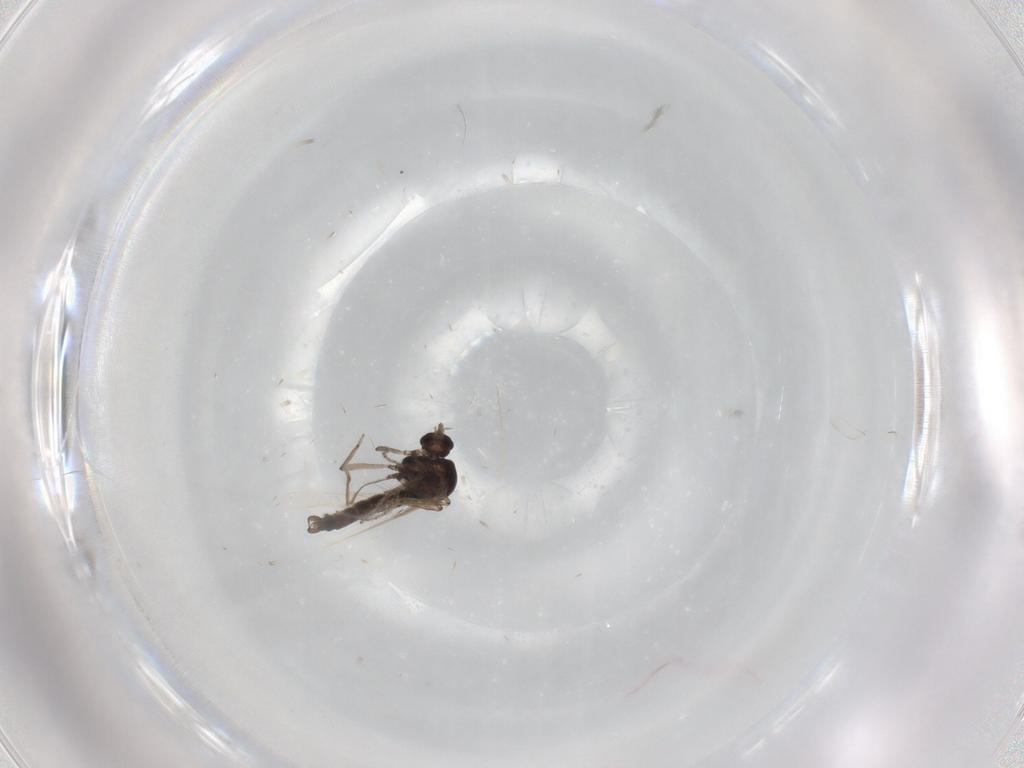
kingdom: Animalia
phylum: Arthropoda
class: Insecta
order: Diptera
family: Ceratopogonidae
